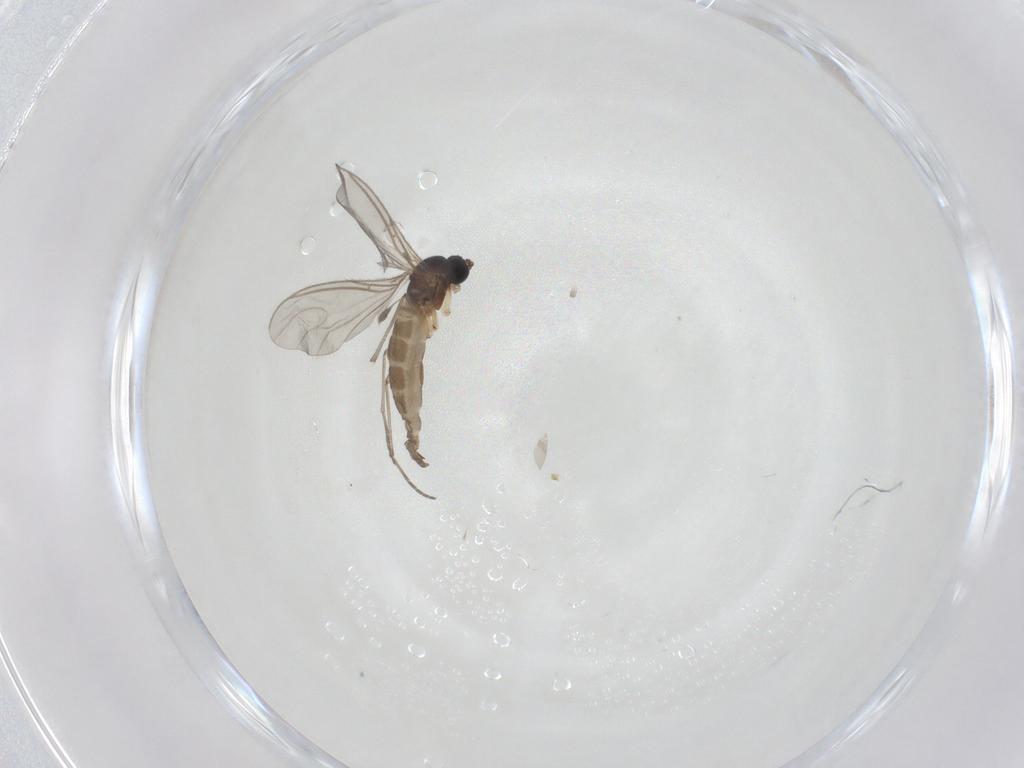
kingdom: Animalia
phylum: Arthropoda
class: Insecta
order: Diptera
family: Sciaridae
